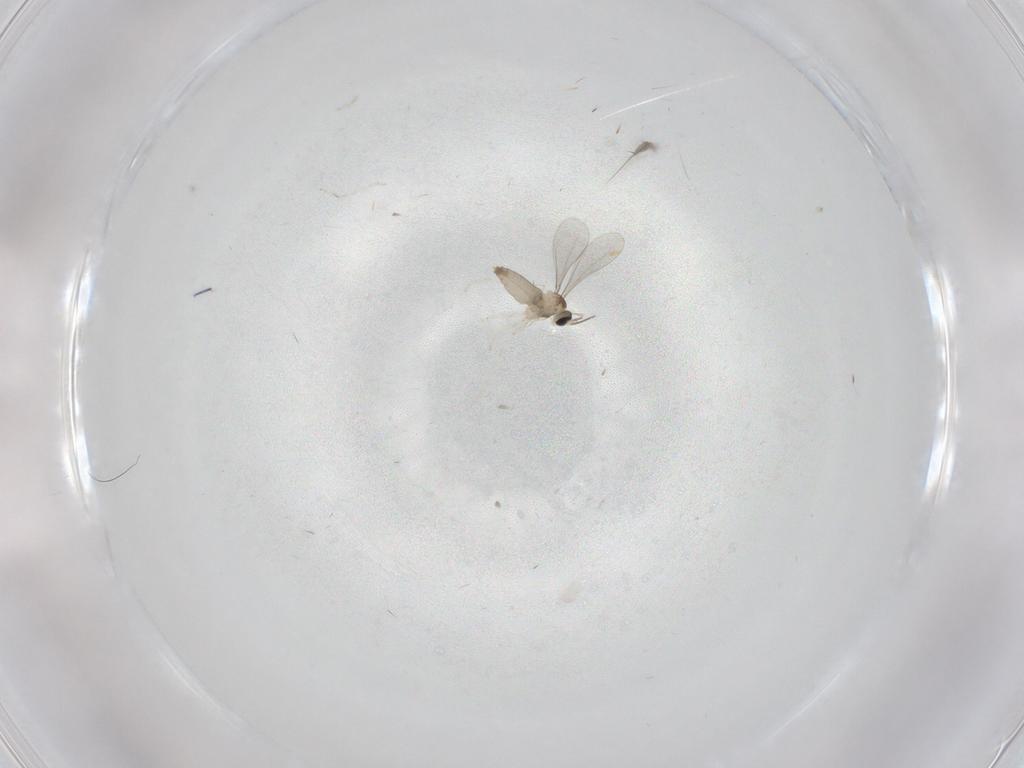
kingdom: Animalia
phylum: Arthropoda
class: Insecta
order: Diptera
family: Cecidomyiidae
